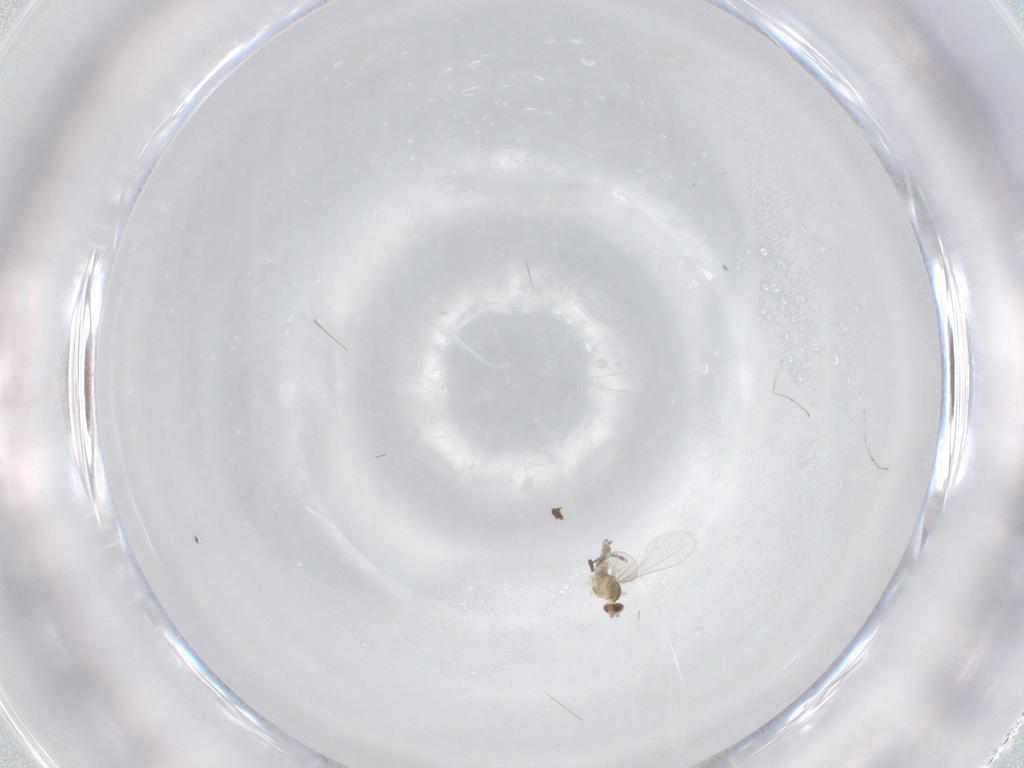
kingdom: Animalia
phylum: Arthropoda
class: Insecta
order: Diptera
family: Cecidomyiidae
